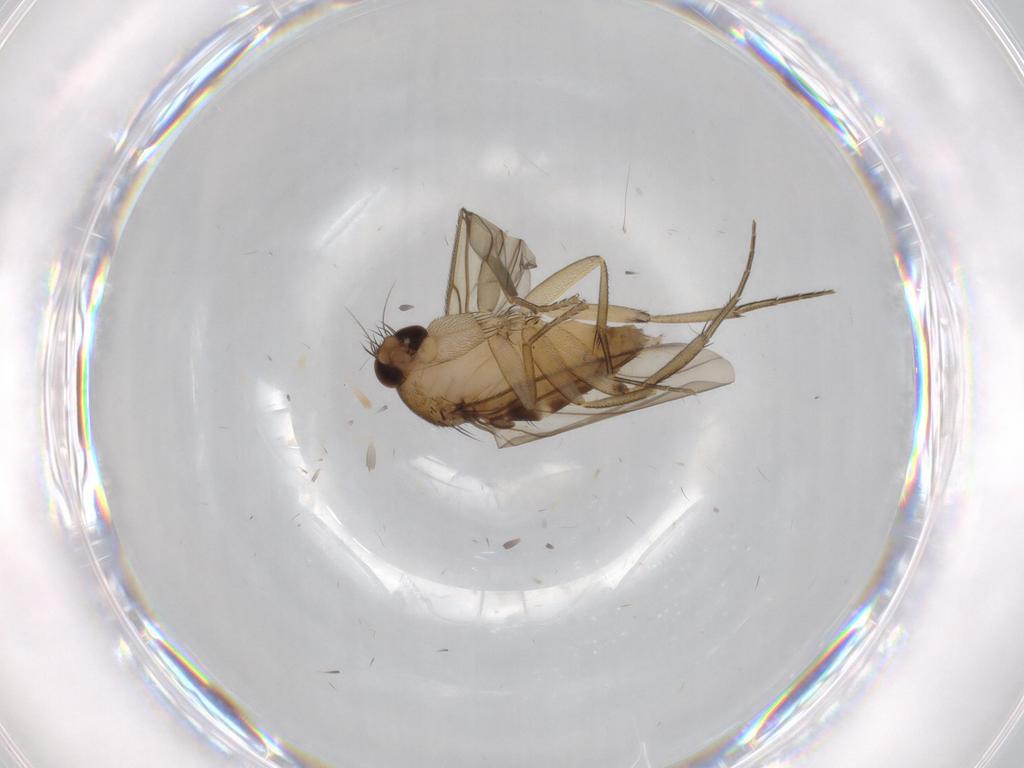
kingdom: Animalia
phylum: Arthropoda
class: Insecta
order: Diptera
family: Phoridae
